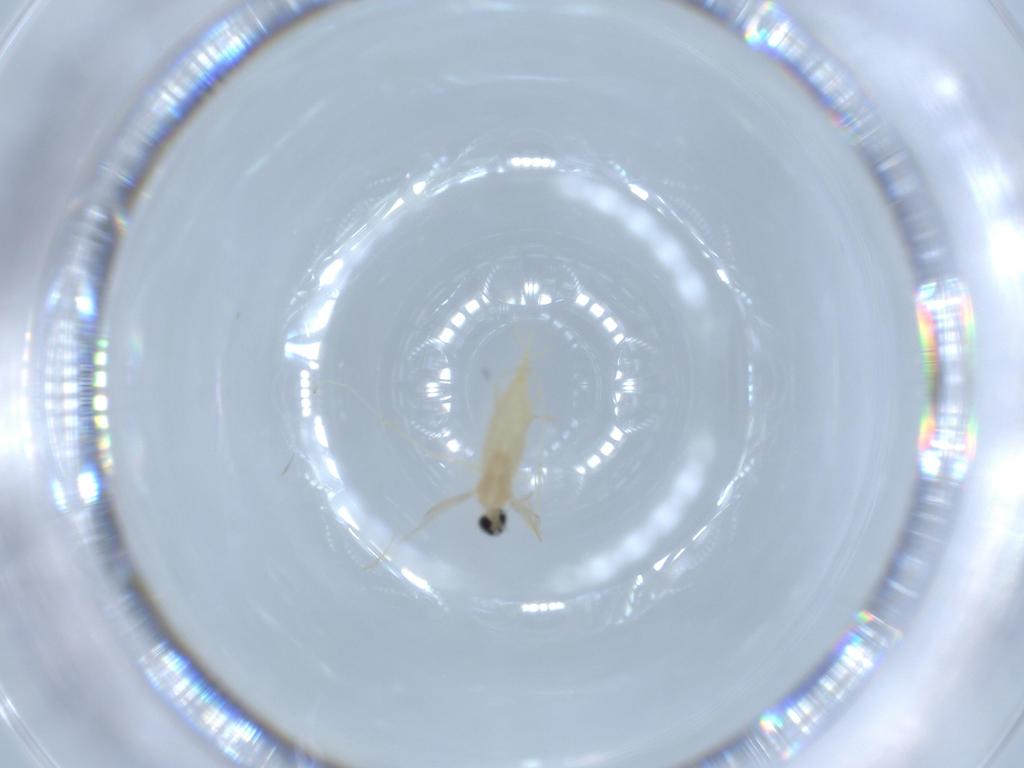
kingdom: Animalia
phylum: Arthropoda
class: Insecta
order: Diptera
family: Cecidomyiidae
